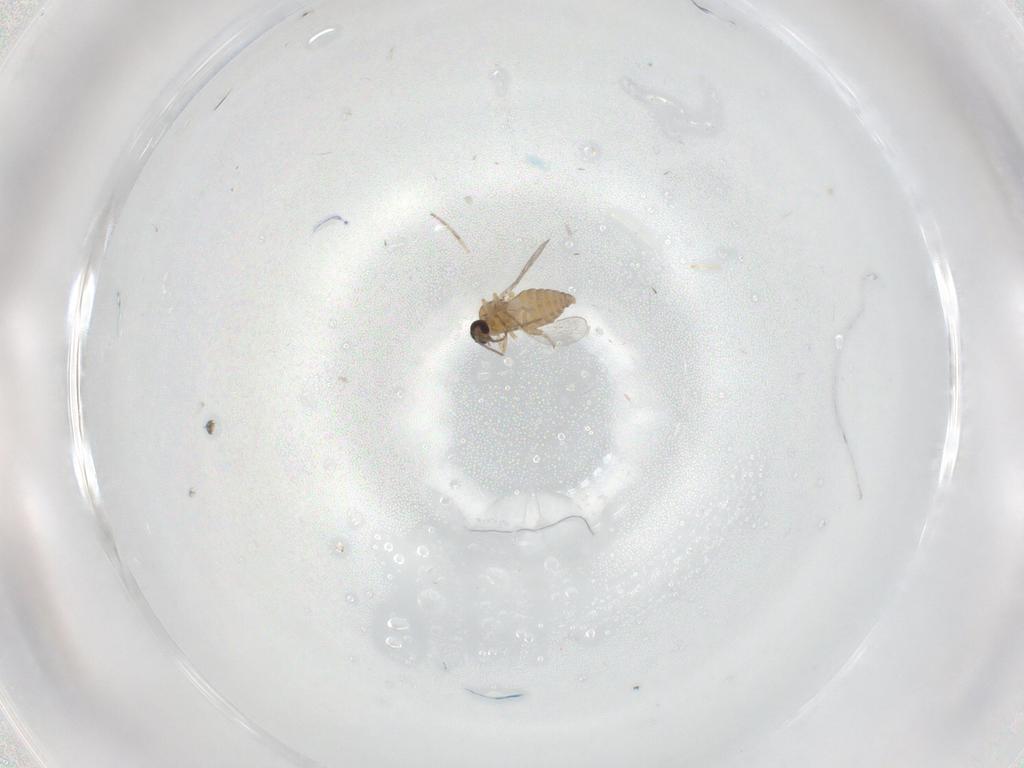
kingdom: Animalia
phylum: Arthropoda
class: Insecta
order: Diptera
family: Ceratopogonidae
